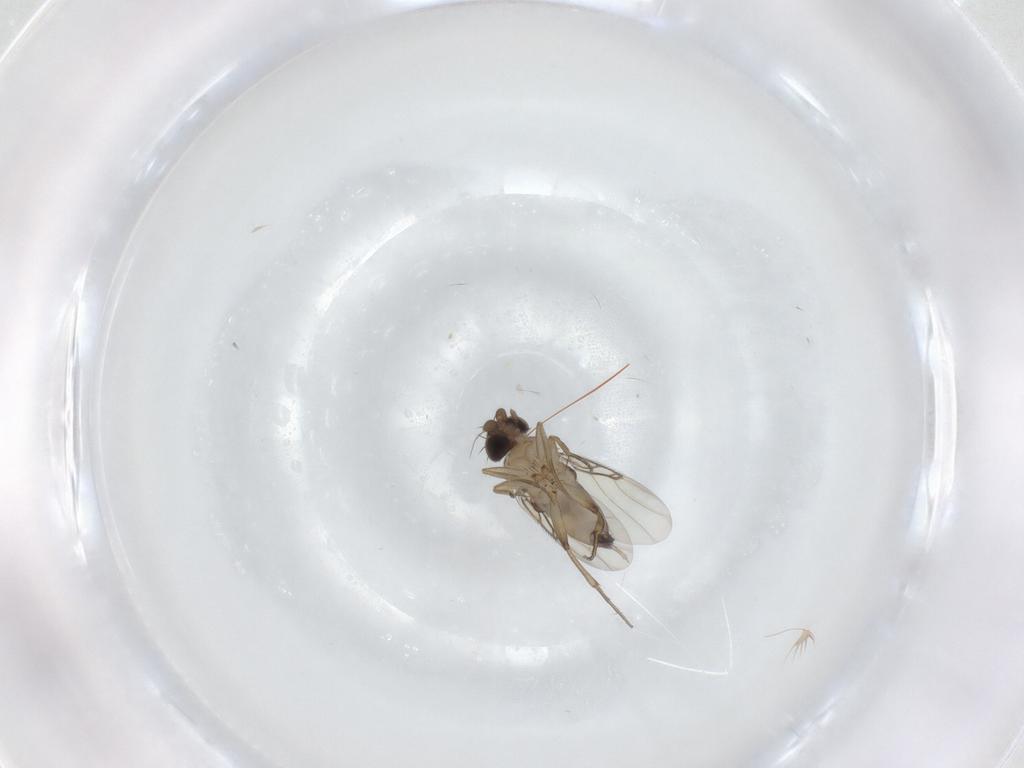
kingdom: Animalia
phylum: Arthropoda
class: Insecta
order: Diptera
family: Phoridae
